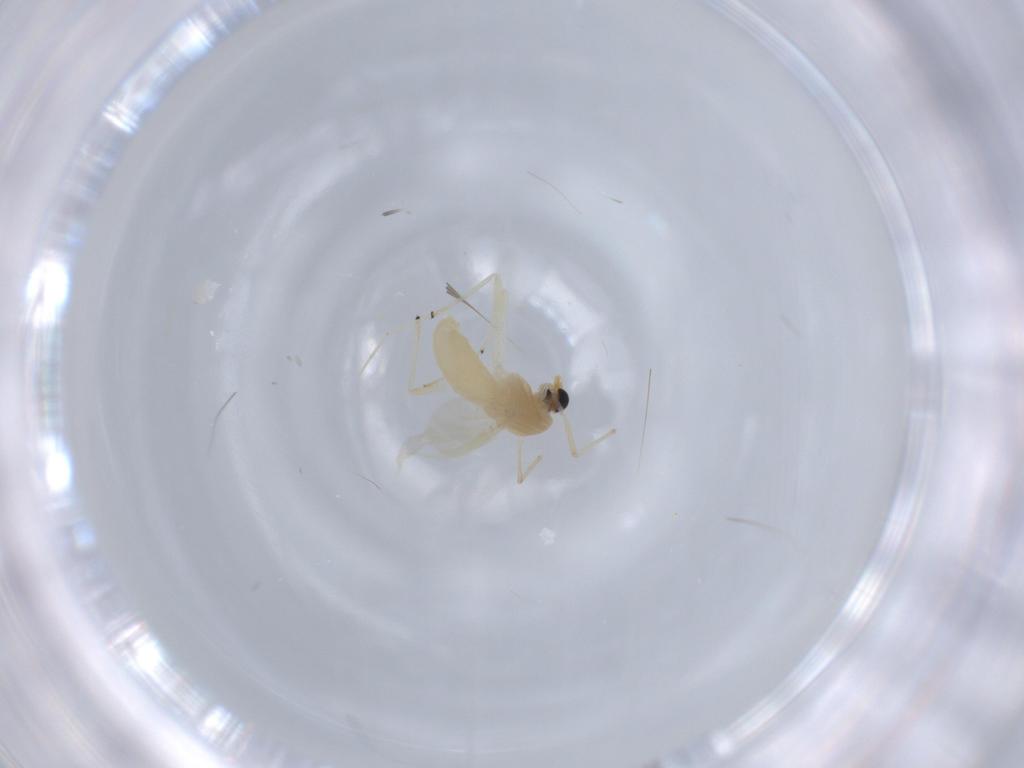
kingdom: Animalia
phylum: Arthropoda
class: Insecta
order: Diptera
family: Chironomidae
